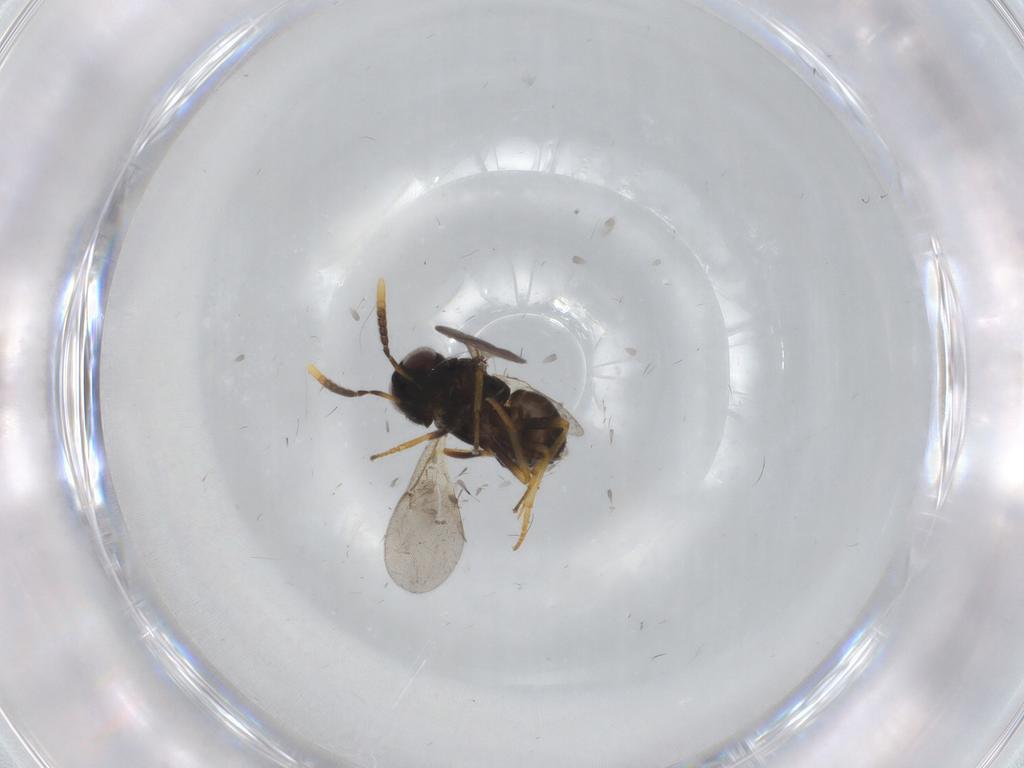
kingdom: Animalia
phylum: Arthropoda
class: Insecta
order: Hymenoptera
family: Encyrtidae
